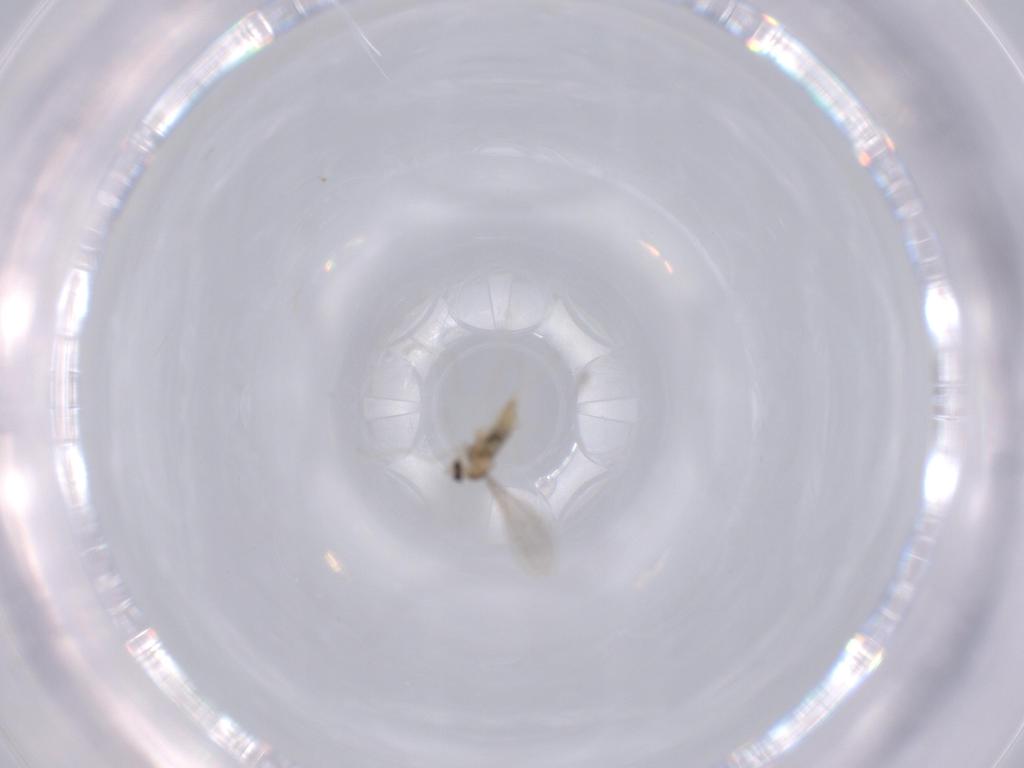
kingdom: Animalia
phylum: Arthropoda
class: Insecta
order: Diptera
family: Cecidomyiidae
